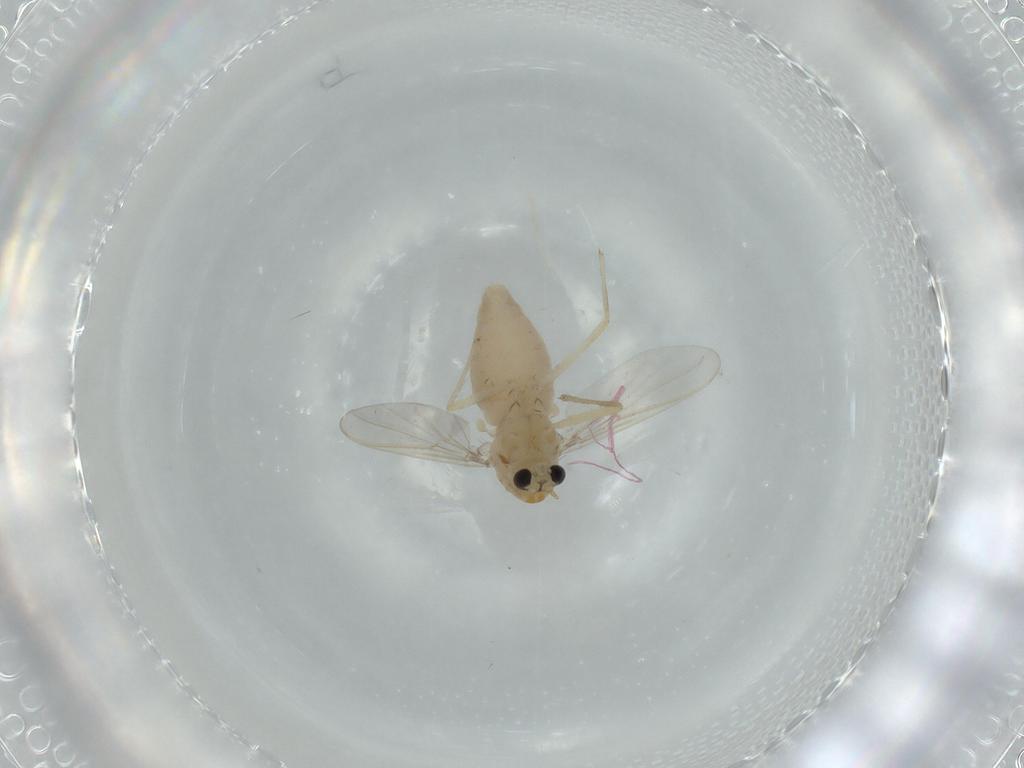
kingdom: Animalia
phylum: Arthropoda
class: Insecta
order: Diptera
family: Chironomidae
